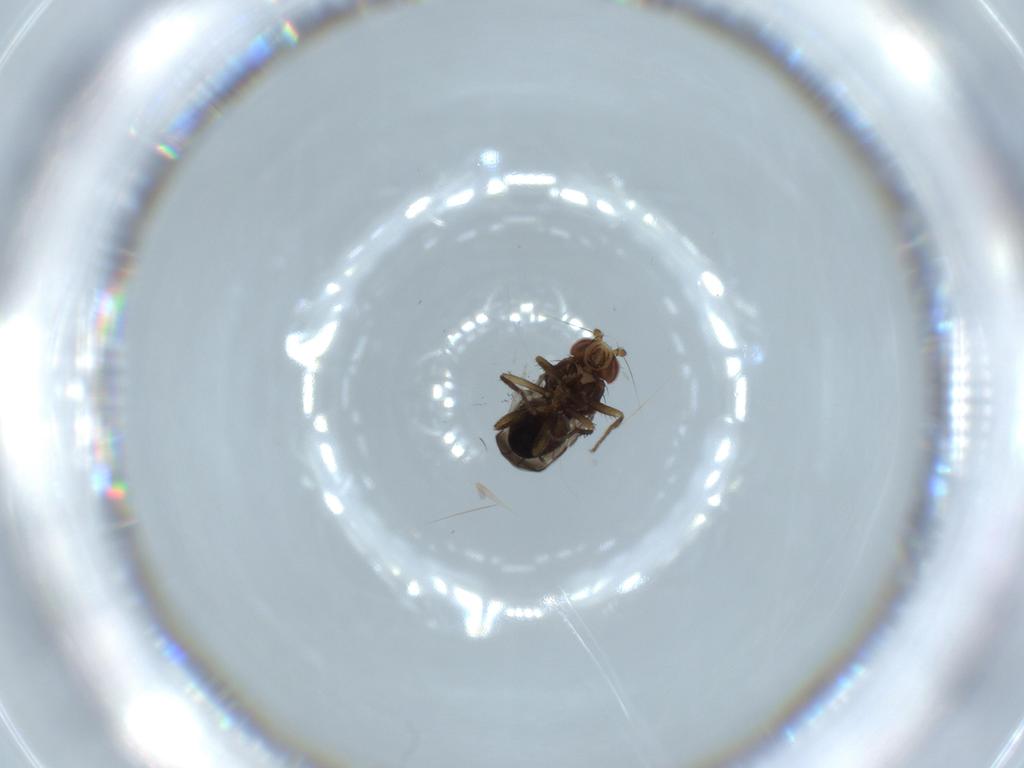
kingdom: Animalia
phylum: Arthropoda
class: Insecta
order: Diptera
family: Sphaeroceridae
